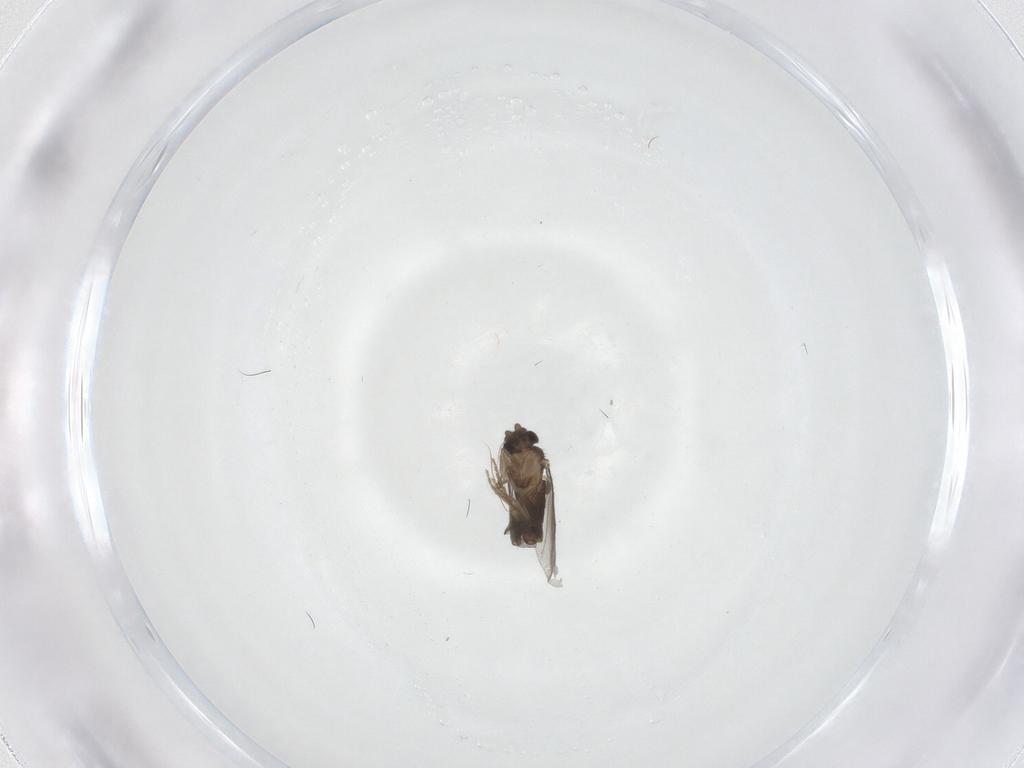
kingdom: Animalia
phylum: Arthropoda
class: Insecta
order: Diptera
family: Tabanidae
